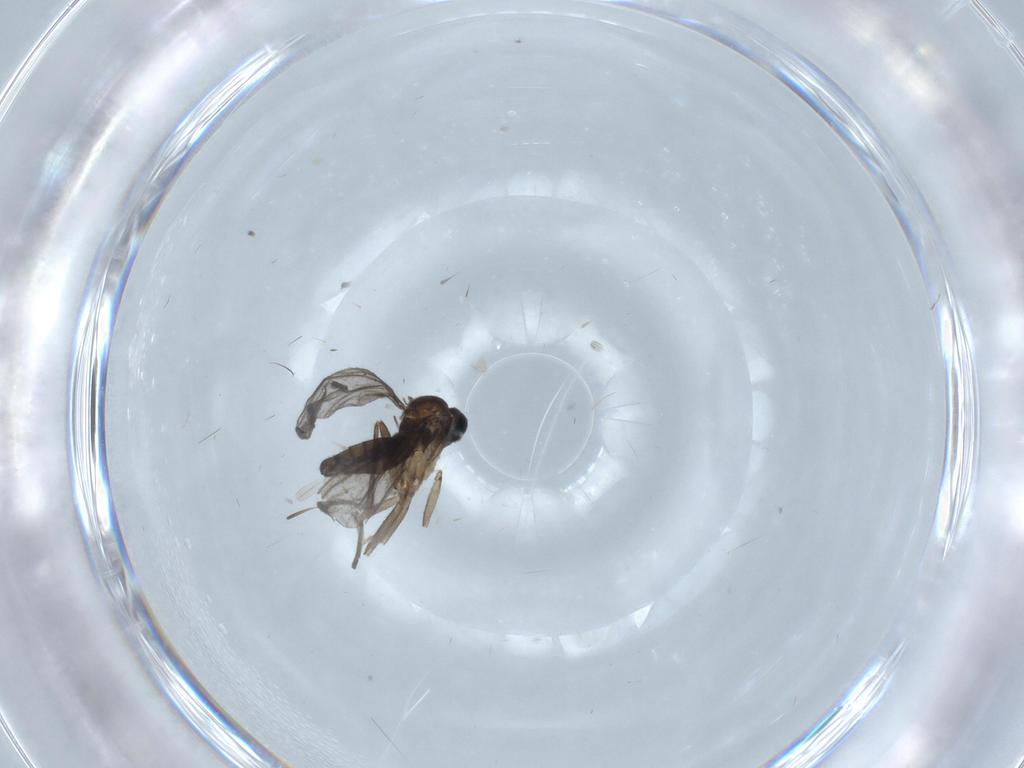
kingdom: Animalia
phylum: Arthropoda
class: Insecta
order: Diptera
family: Cecidomyiidae
